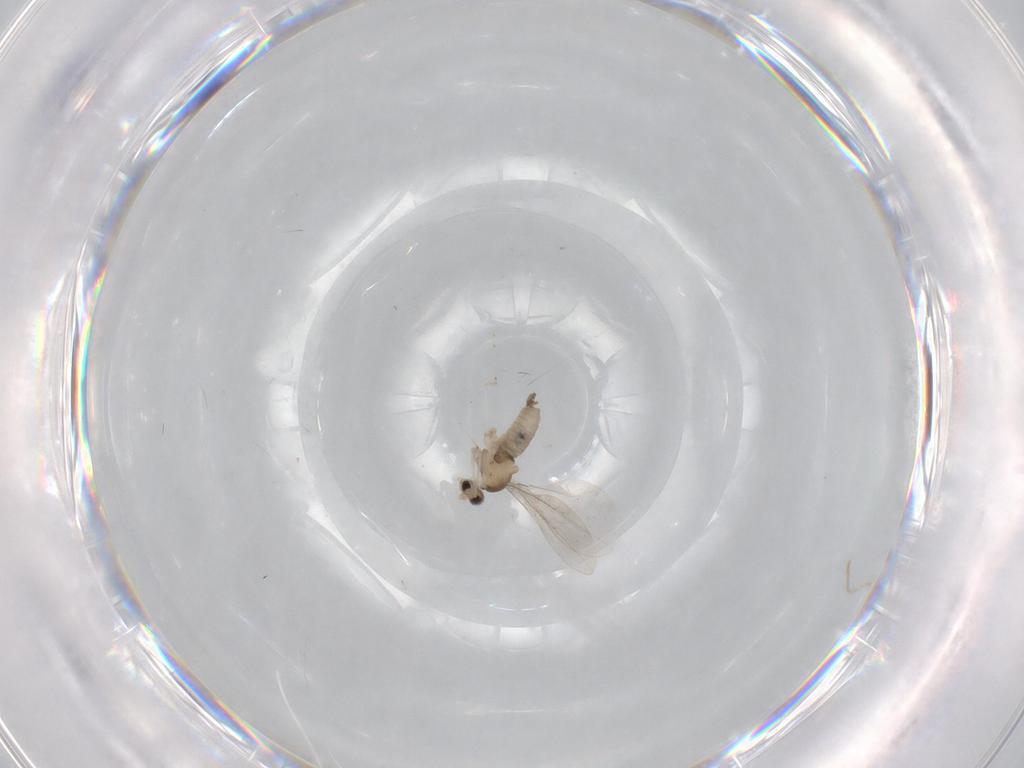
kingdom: Animalia
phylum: Arthropoda
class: Insecta
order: Diptera
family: Cecidomyiidae
